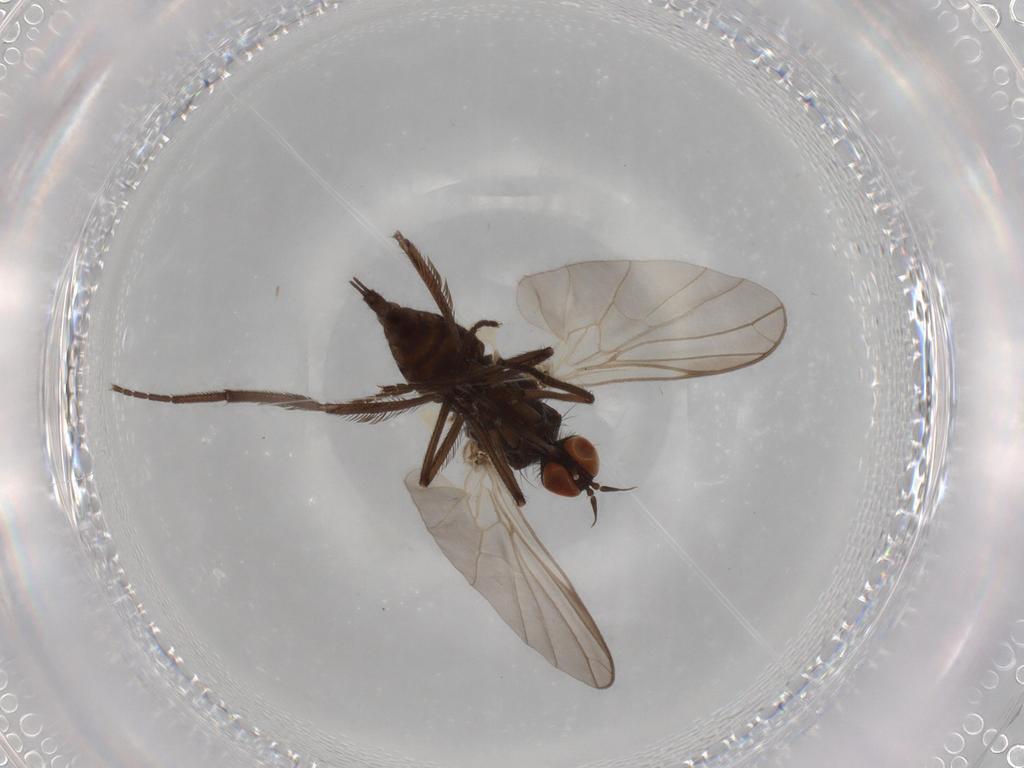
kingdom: Animalia
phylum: Arthropoda
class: Insecta
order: Diptera
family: Empididae
